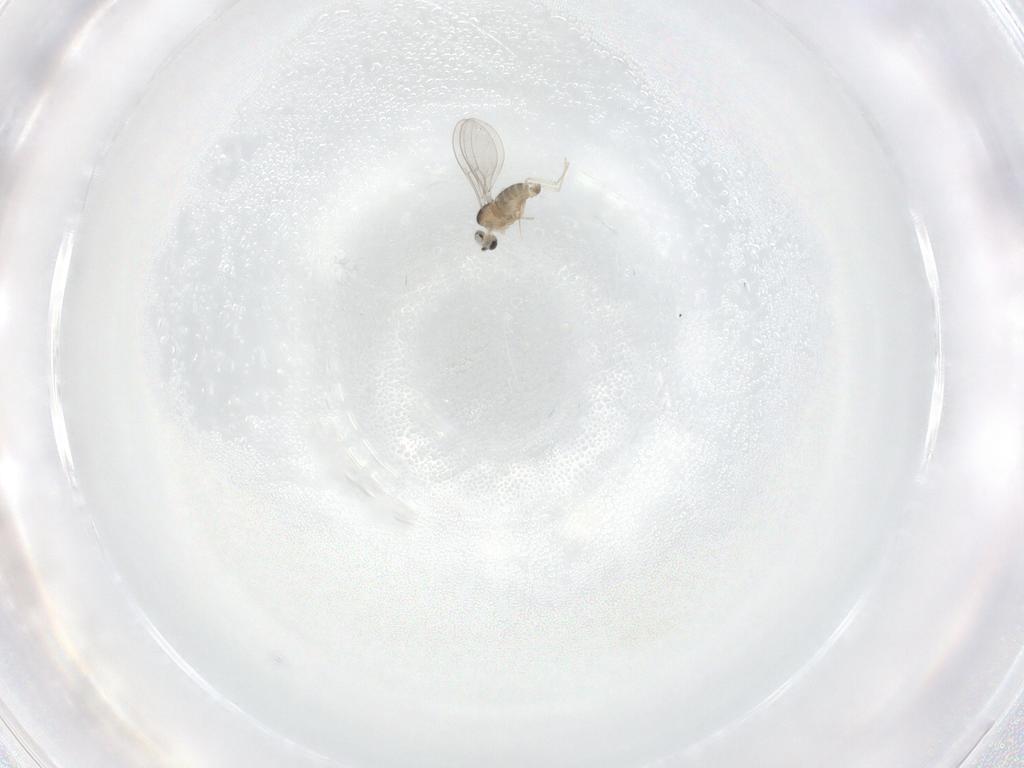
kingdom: Animalia
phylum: Arthropoda
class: Insecta
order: Diptera
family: Cecidomyiidae
